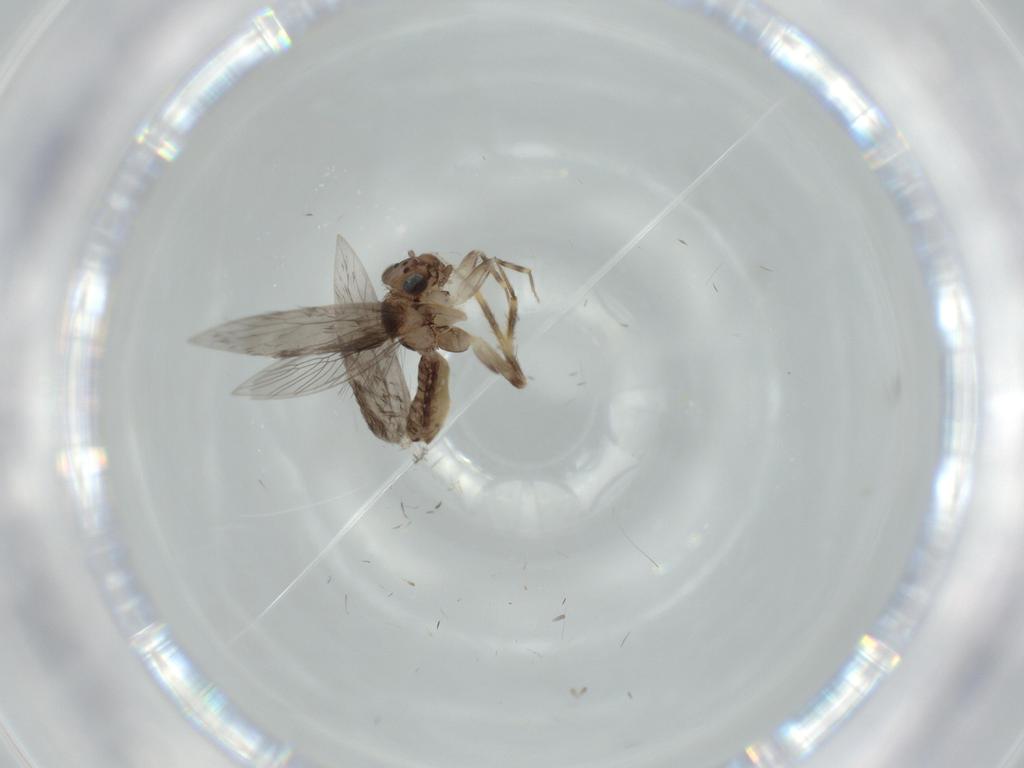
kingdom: Animalia
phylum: Arthropoda
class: Insecta
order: Psocodea
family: Lepidopsocidae
